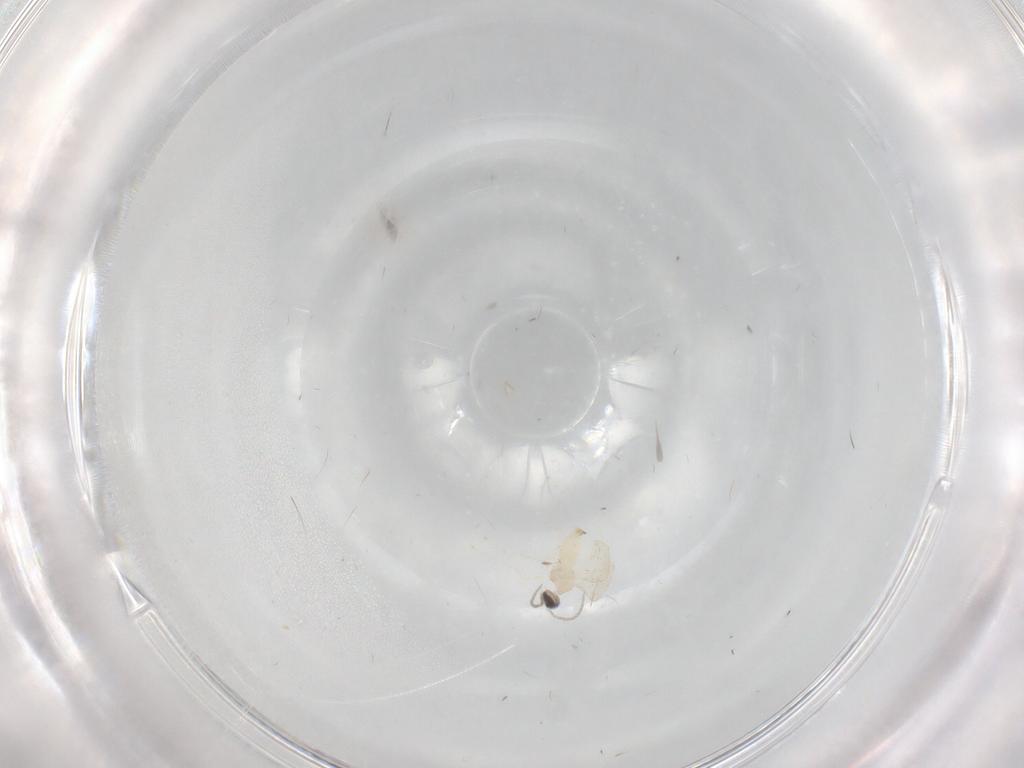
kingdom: Animalia
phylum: Arthropoda
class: Insecta
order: Diptera
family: Cecidomyiidae
